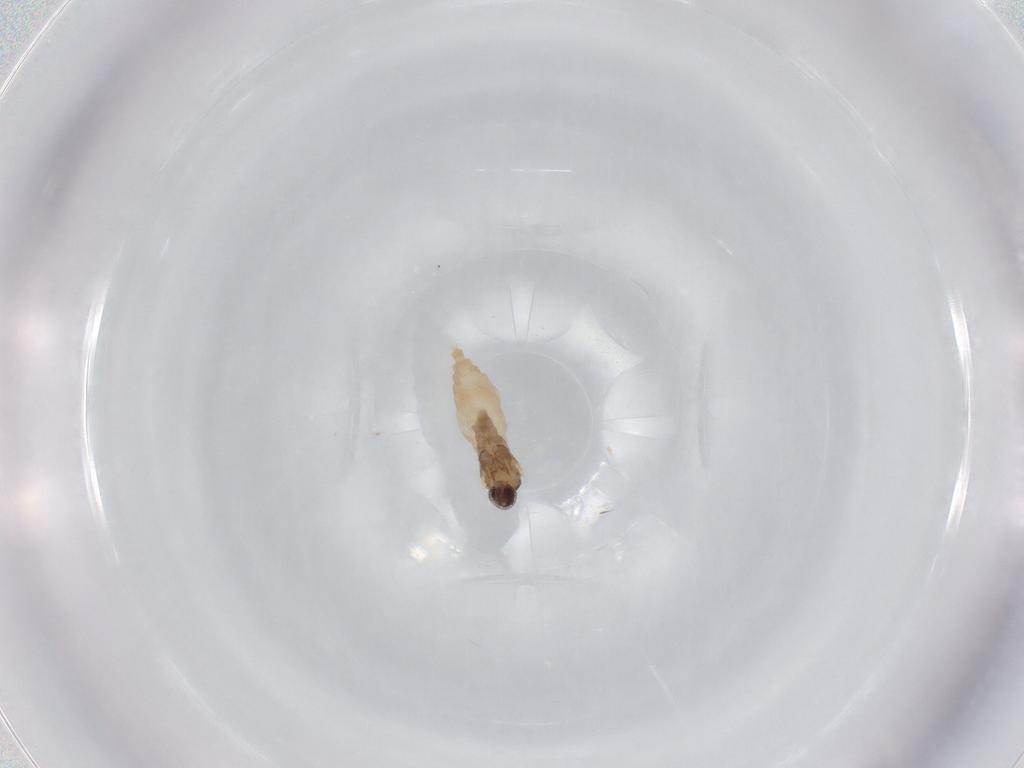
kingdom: Animalia
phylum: Arthropoda
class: Insecta
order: Diptera
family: Cecidomyiidae
